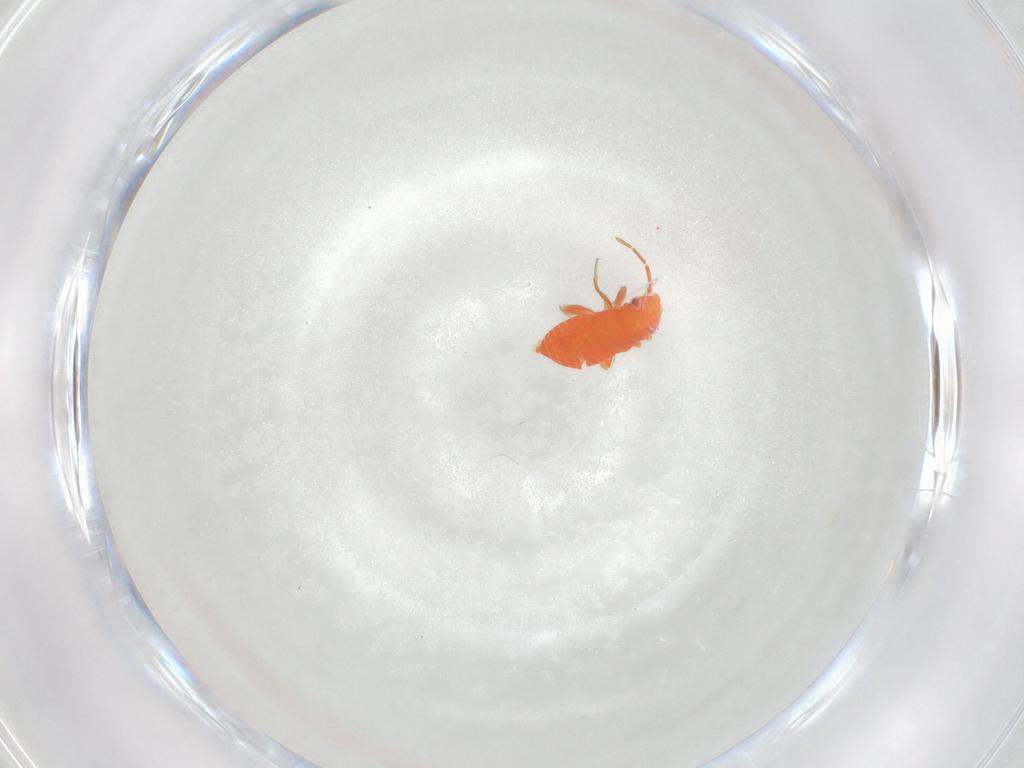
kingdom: Animalia
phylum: Arthropoda
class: Insecta
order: Hemiptera
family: Miridae
